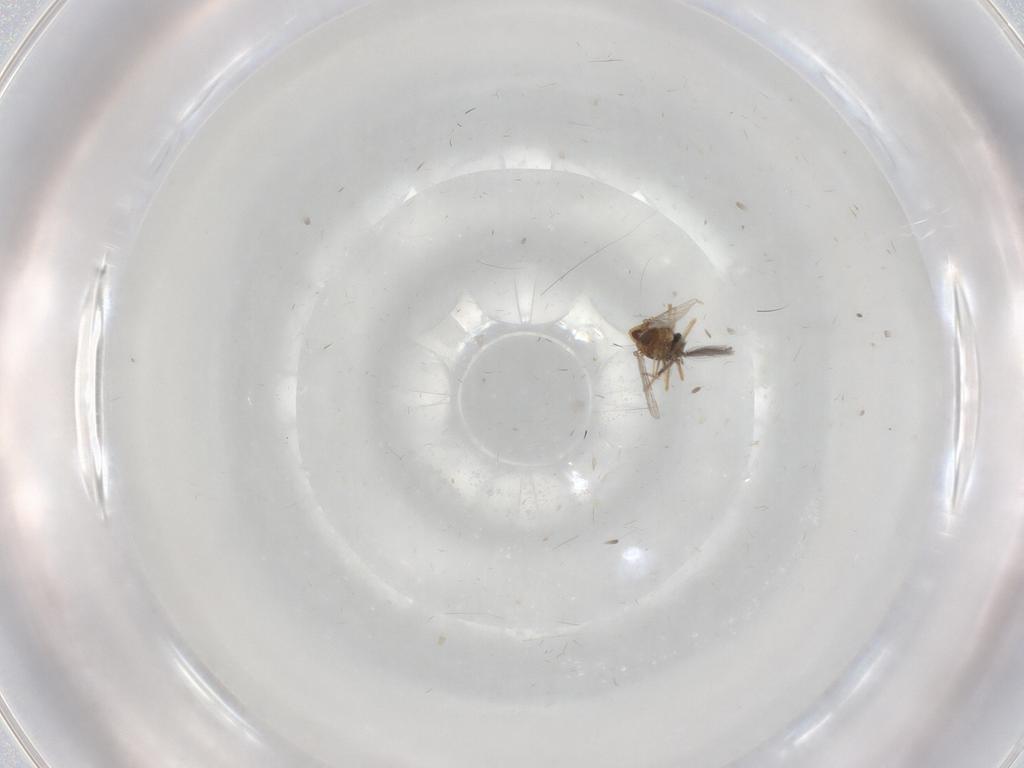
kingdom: Animalia
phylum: Arthropoda
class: Insecta
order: Diptera
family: Ceratopogonidae
